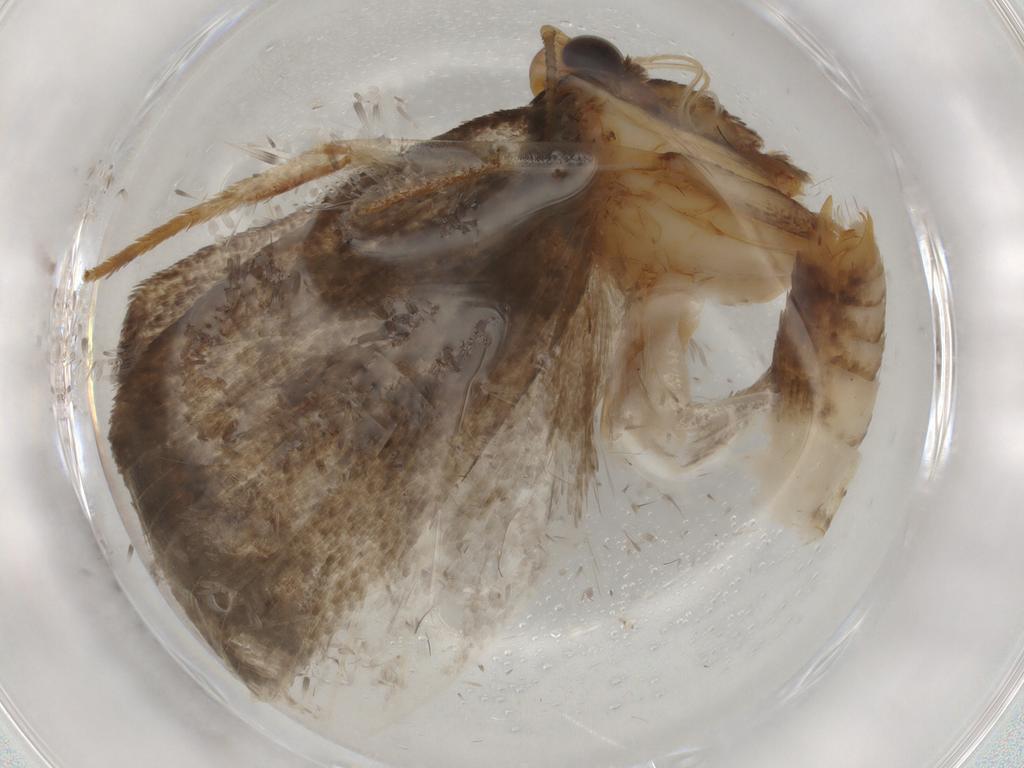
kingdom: Animalia
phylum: Arthropoda
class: Insecta
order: Lepidoptera
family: Oecophoridae
